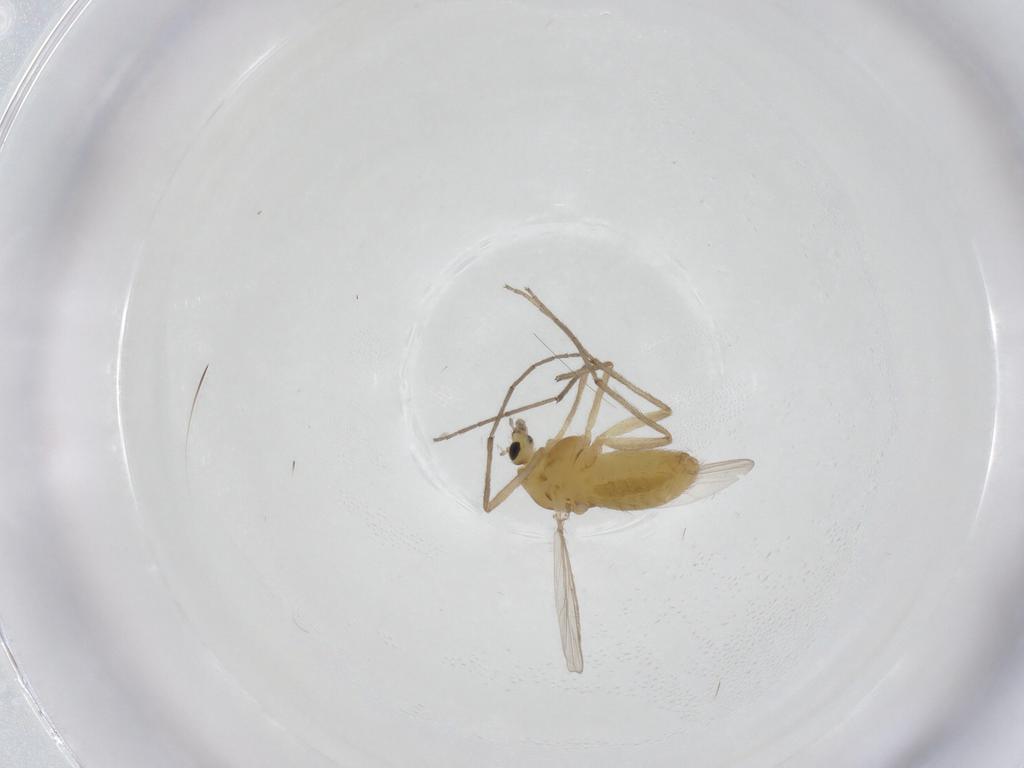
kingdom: Animalia
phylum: Arthropoda
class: Insecta
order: Diptera
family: Chironomidae
